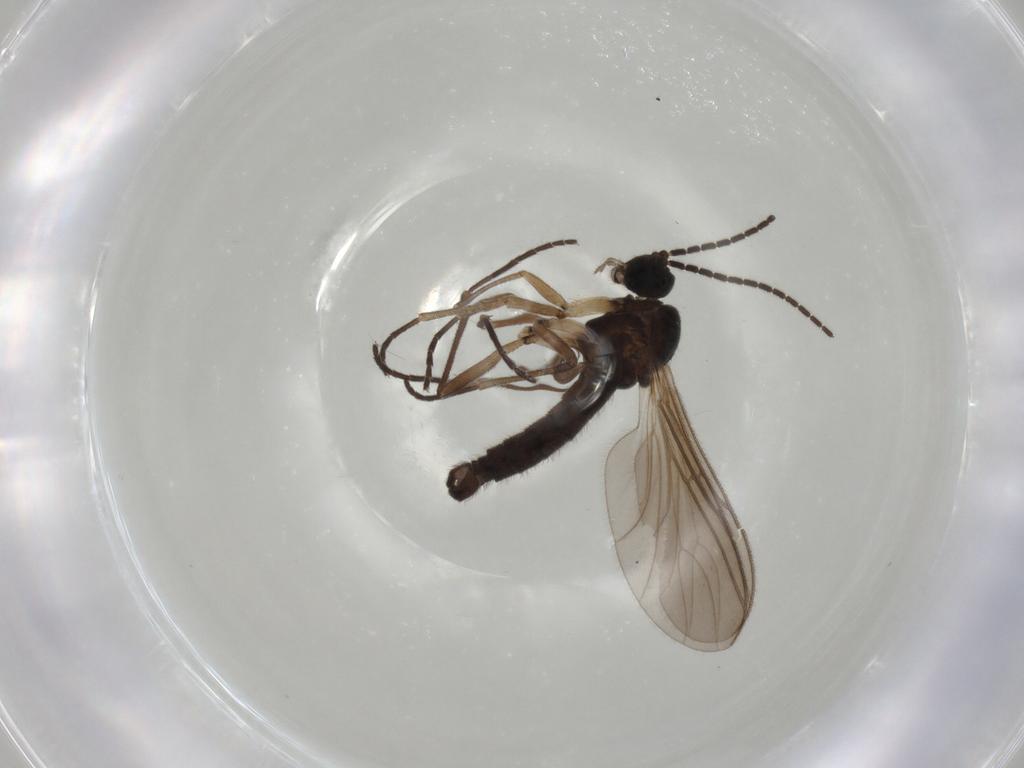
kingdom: Animalia
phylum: Arthropoda
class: Insecta
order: Diptera
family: Sciaridae
